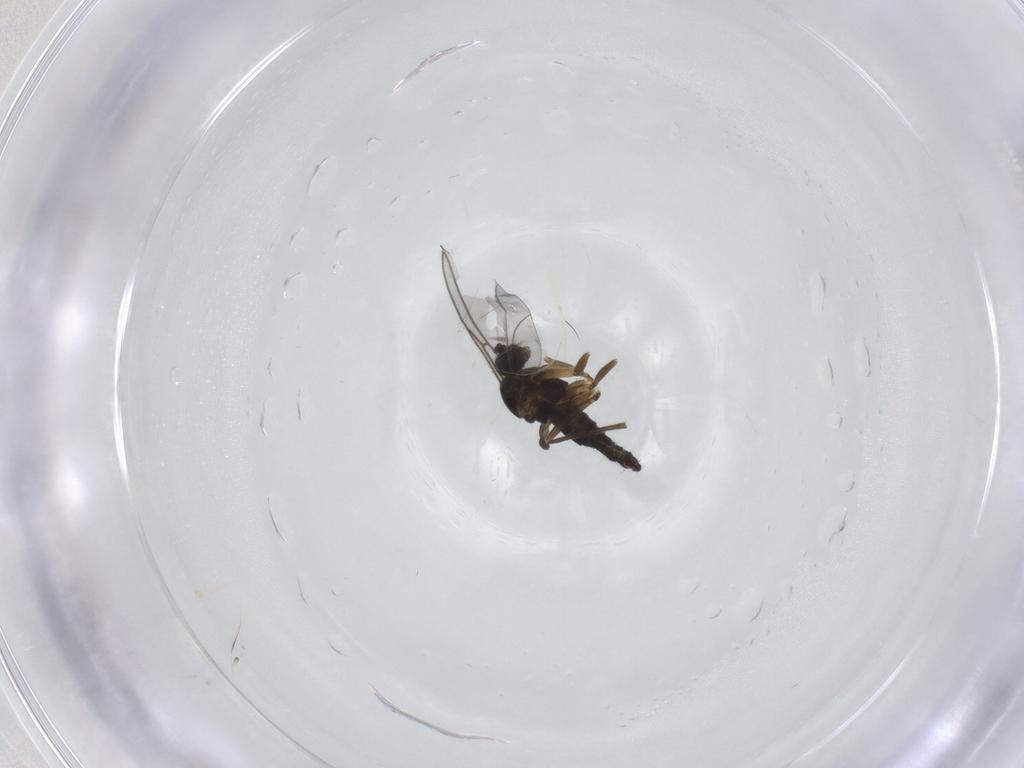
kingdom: Animalia
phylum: Arthropoda
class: Insecta
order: Diptera
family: Sciaridae
